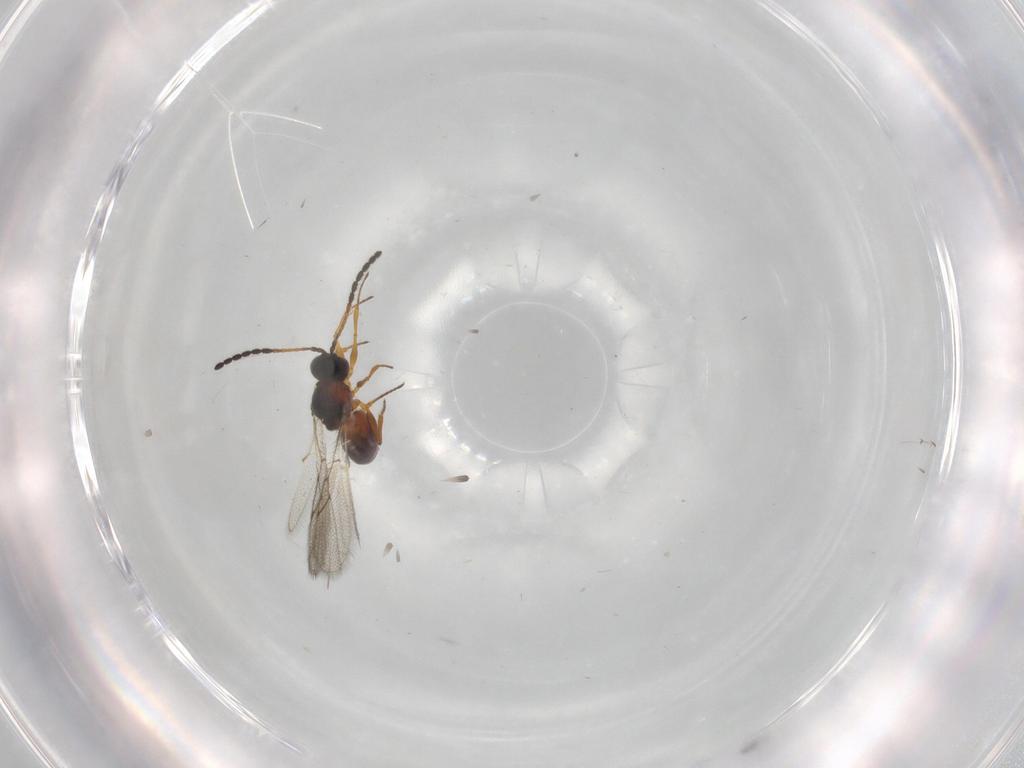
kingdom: Animalia
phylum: Arthropoda
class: Insecta
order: Hymenoptera
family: Figitidae
